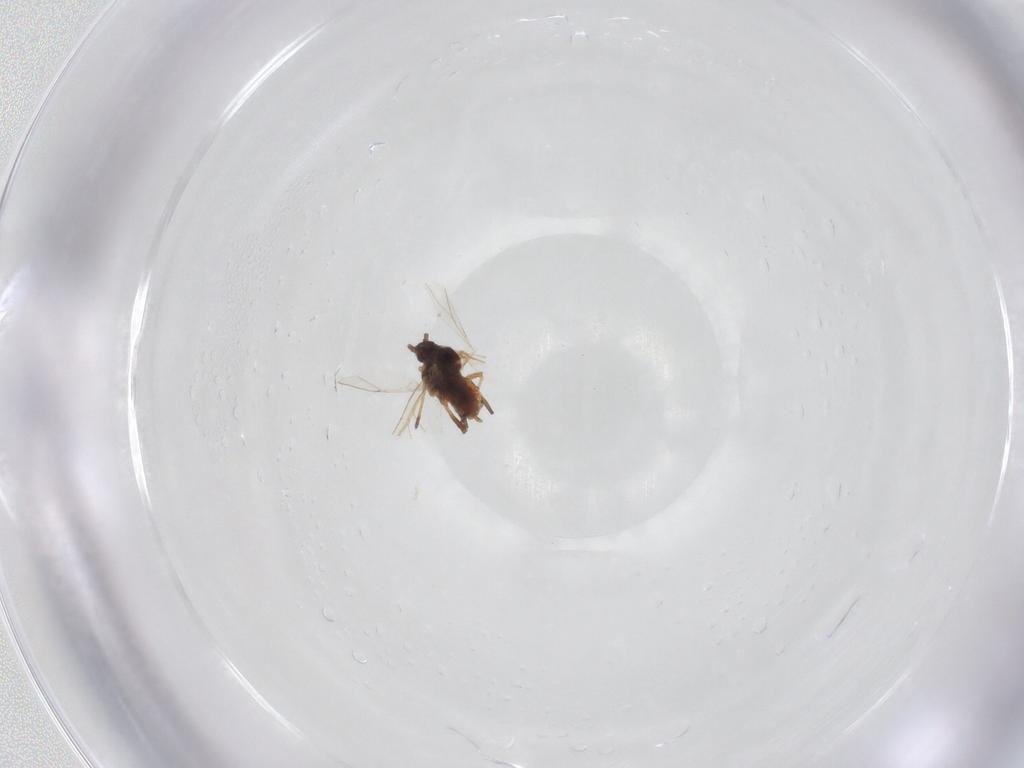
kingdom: Animalia
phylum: Arthropoda
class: Insecta
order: Hemiptera
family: Aphididae
